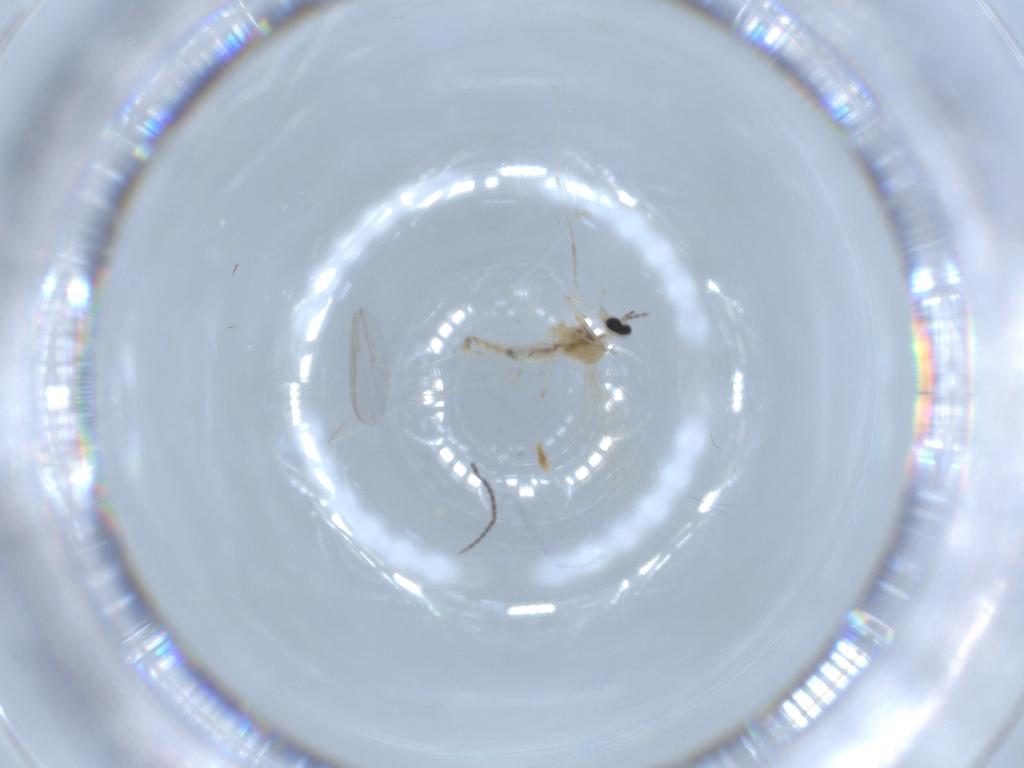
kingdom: Animalia
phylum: Arthropoda
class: Insecta
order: Diptera
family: Cecidomyiidae
